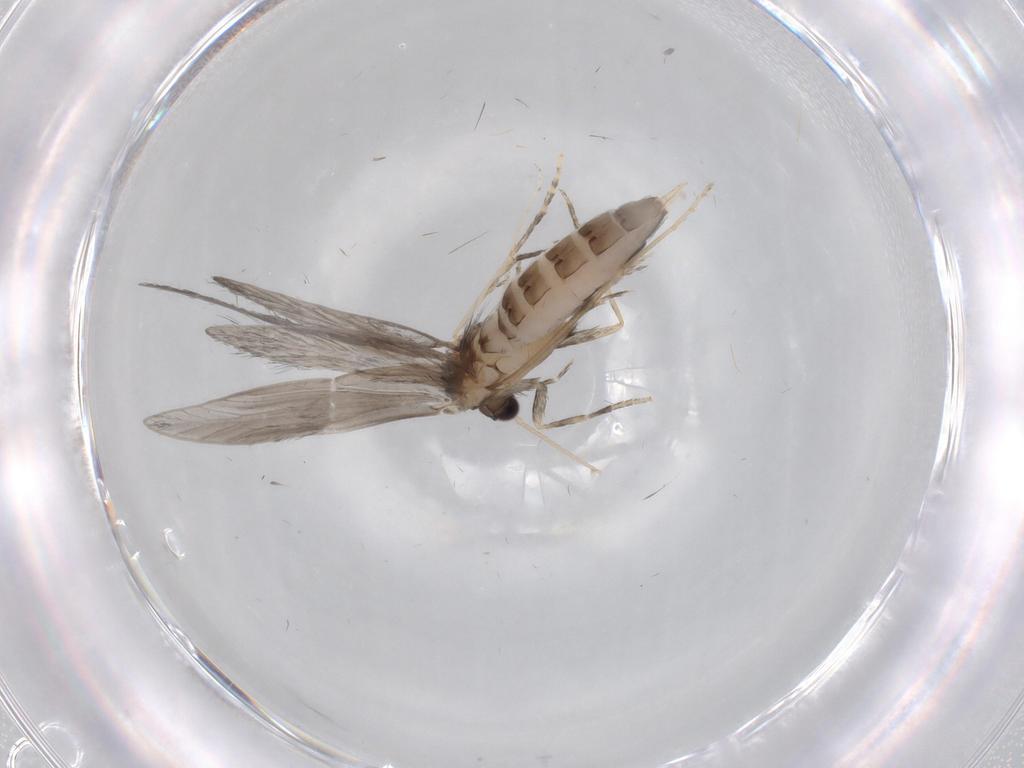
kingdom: Animalia
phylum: Arthropoda
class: Insecta
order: Trichoptera
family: Hydroptilidae
